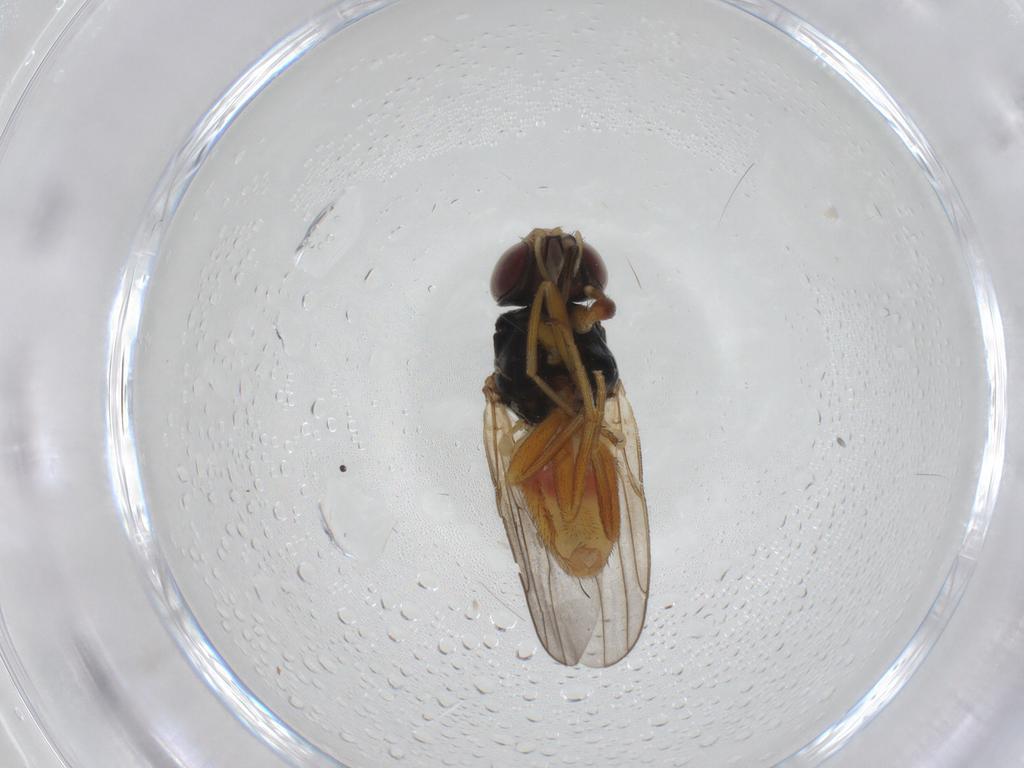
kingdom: Animalia
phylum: Arthropoda
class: Insecta
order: Diptera
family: Chloropidae
